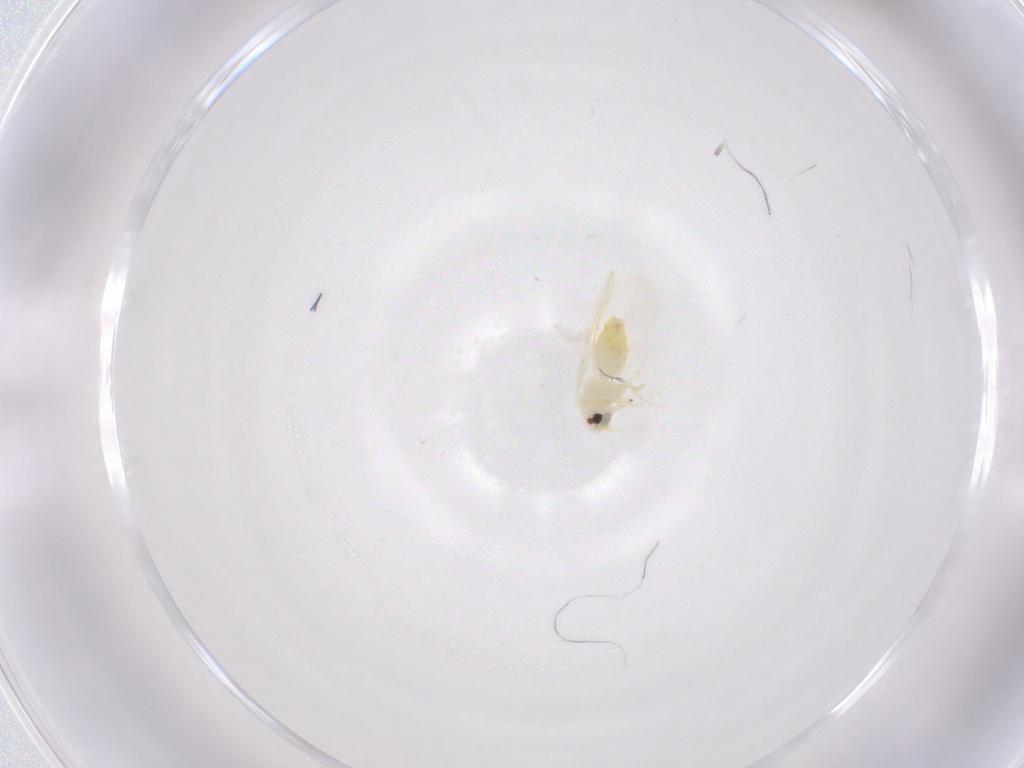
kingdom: Animalia
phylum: Arthropoda
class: Insecta
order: Hemiptera
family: Aleyrodidae
